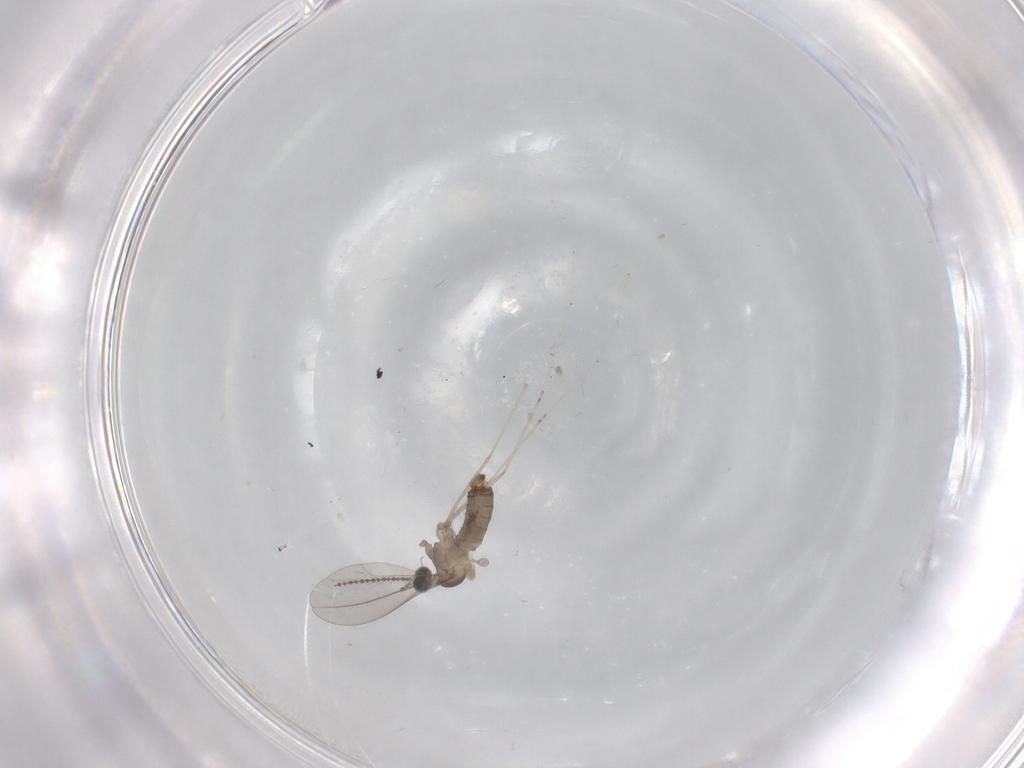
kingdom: Animalia
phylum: Arthropoda
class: Insecta
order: Diptera
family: Cecidomyiidae
